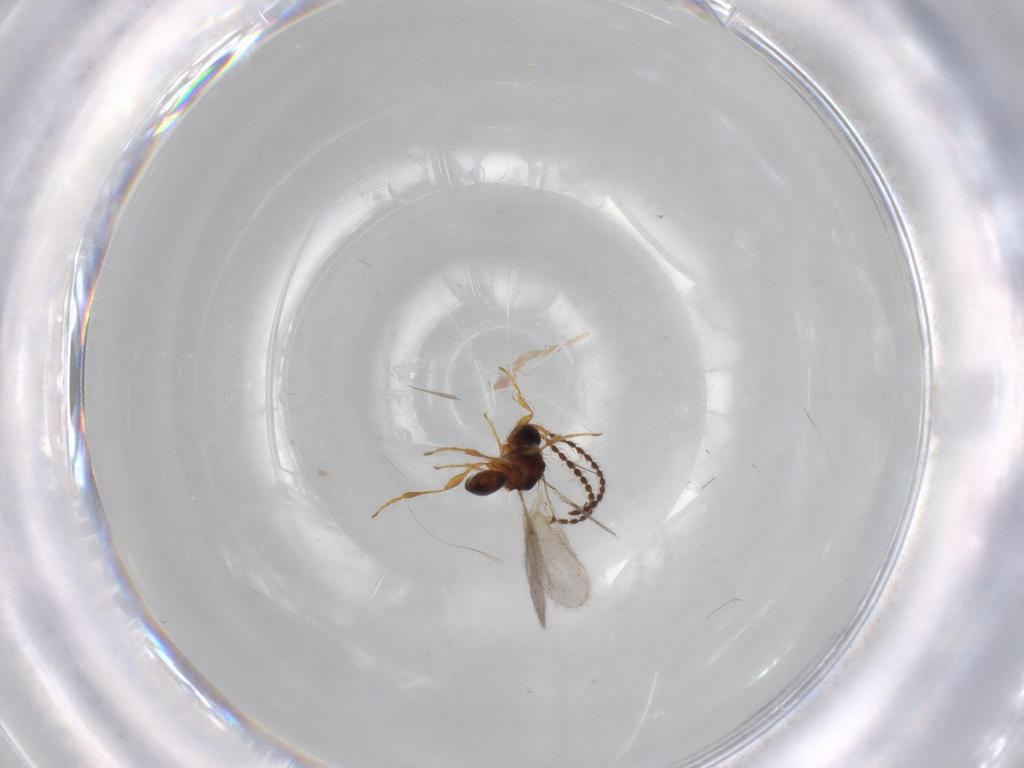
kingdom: Animalia
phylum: Arthropoda
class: Insecta
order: Hymenoptera
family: Diapriidae
